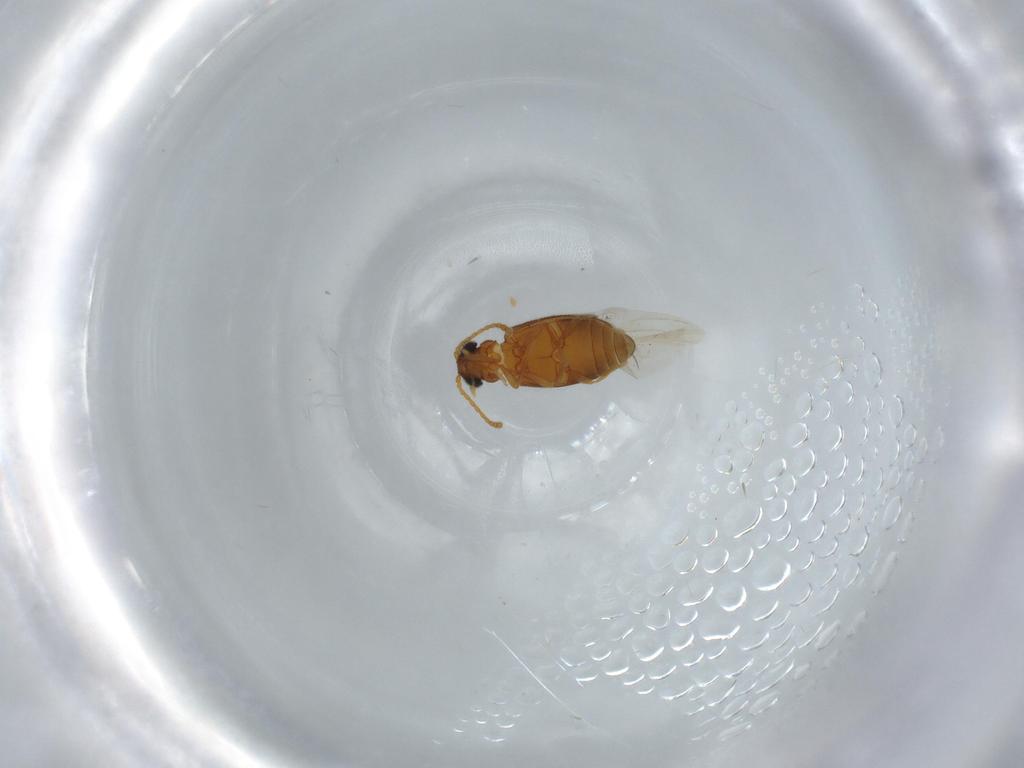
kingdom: Animalia
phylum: Arthropoda
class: Insecta
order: Coleoptera
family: Aderidae
